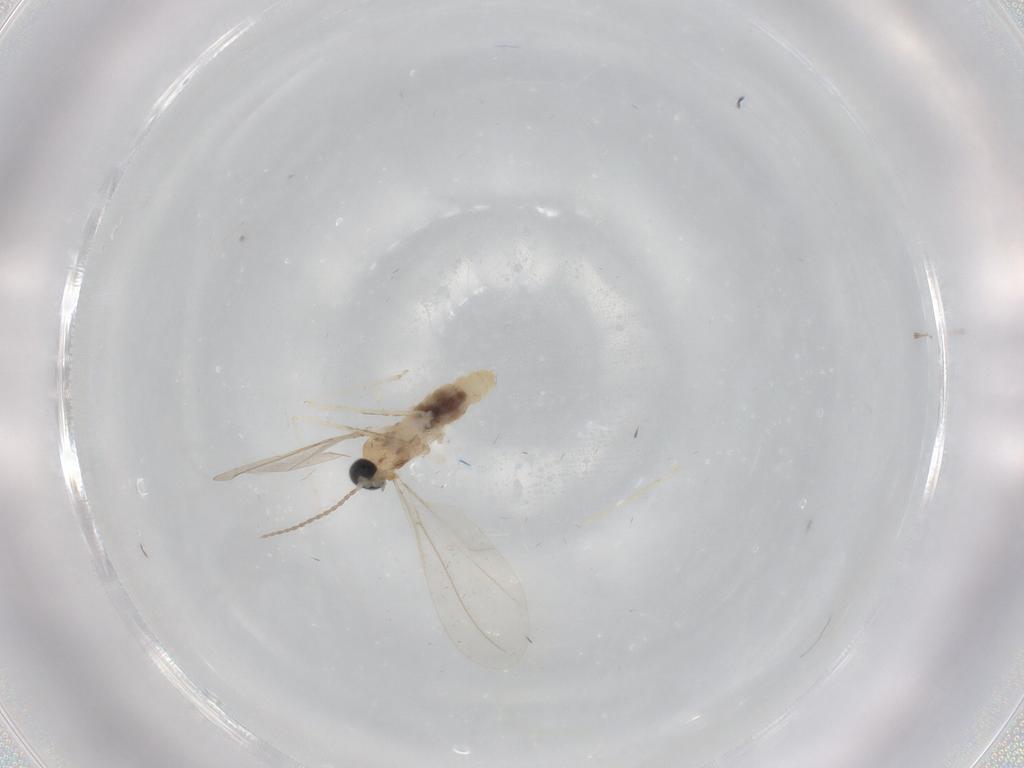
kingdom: Animalia
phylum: Arthropoda
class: Insecta
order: Diptera
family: Cecidomyiidae
